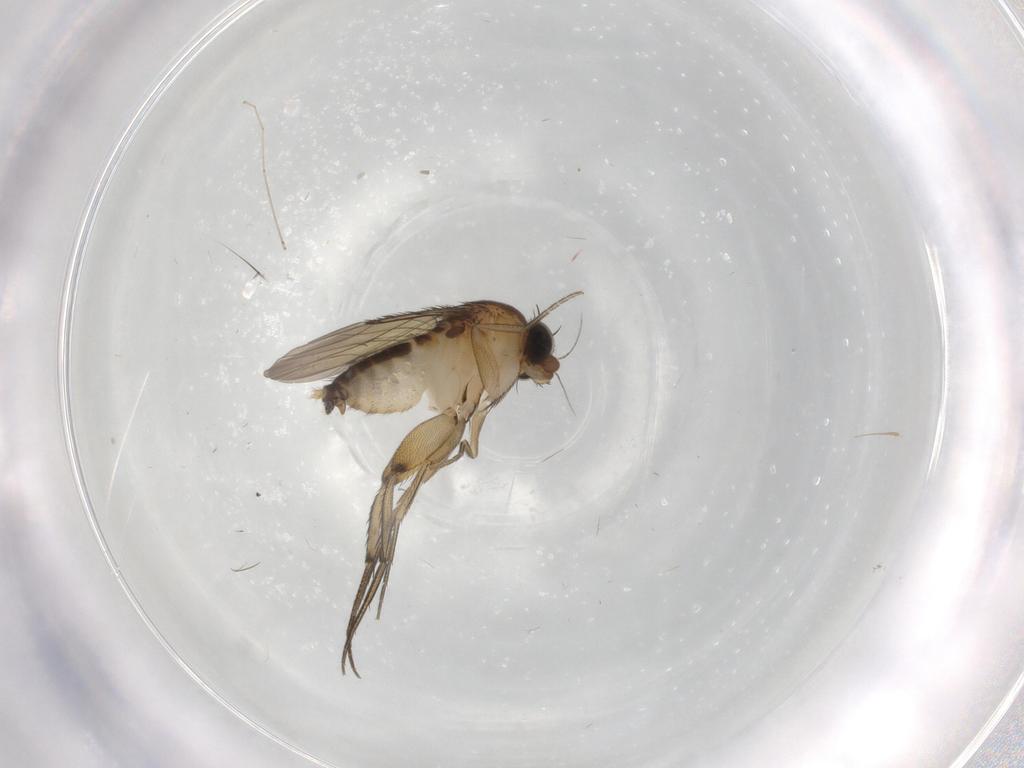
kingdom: Animalia
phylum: Arthropoda
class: Insecta
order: Diptera
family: Phoridae
